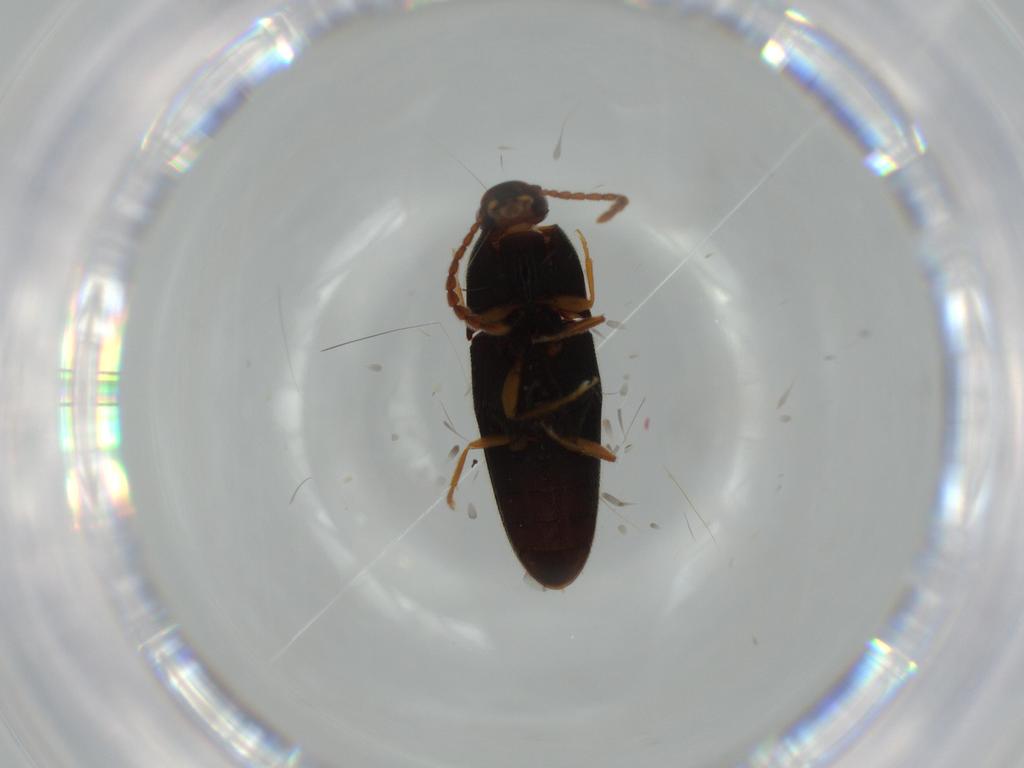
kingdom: Animalia
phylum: Arthropoda
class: Insecta
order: Coleoptera
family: Elateridae
